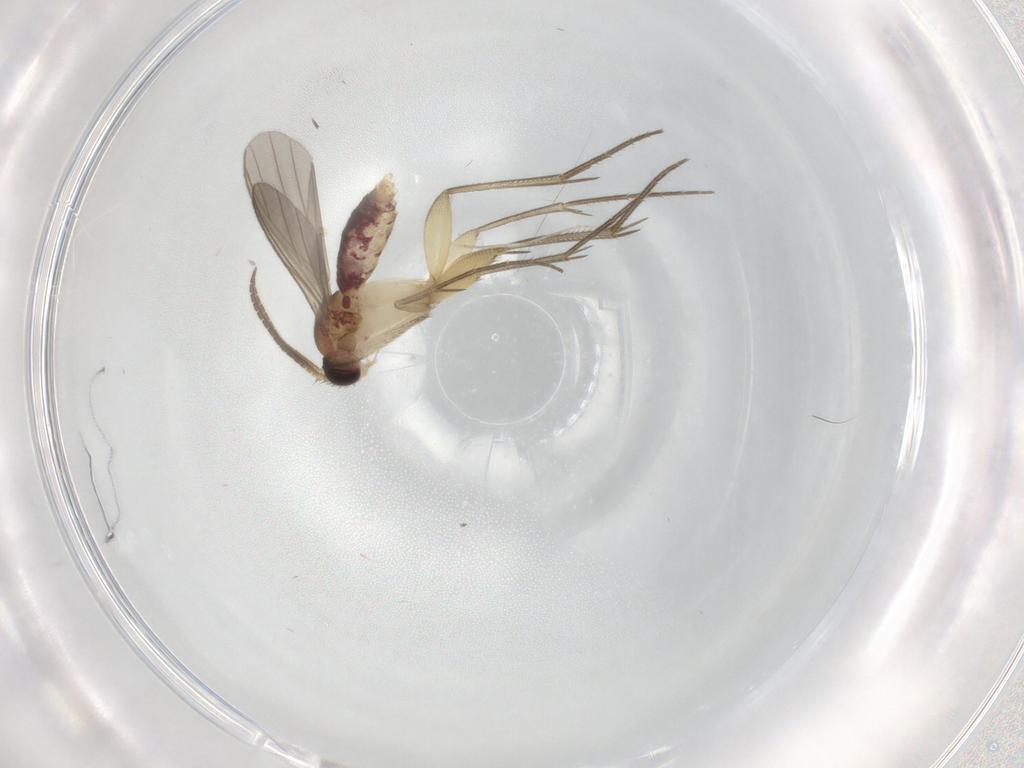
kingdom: Animalia
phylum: Arthropoda
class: Insecta
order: Diptera
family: Mycetophilidae
